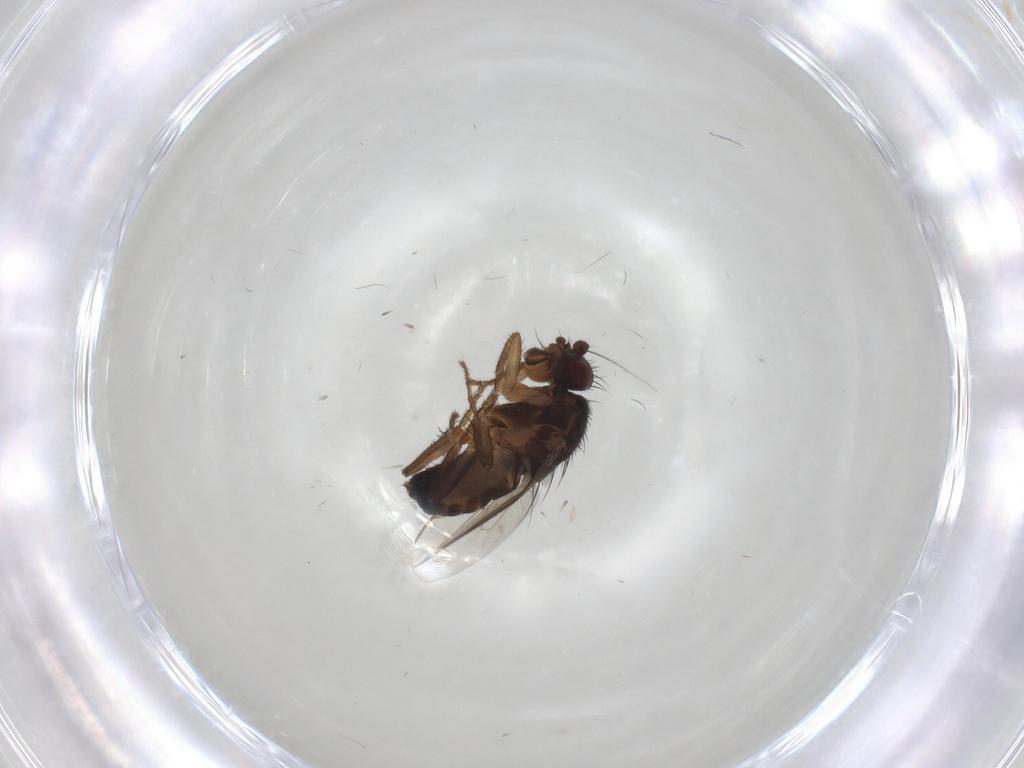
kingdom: Animalia
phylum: Arthropoda
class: Insecta
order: Diptera
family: Sphaeroceridae
